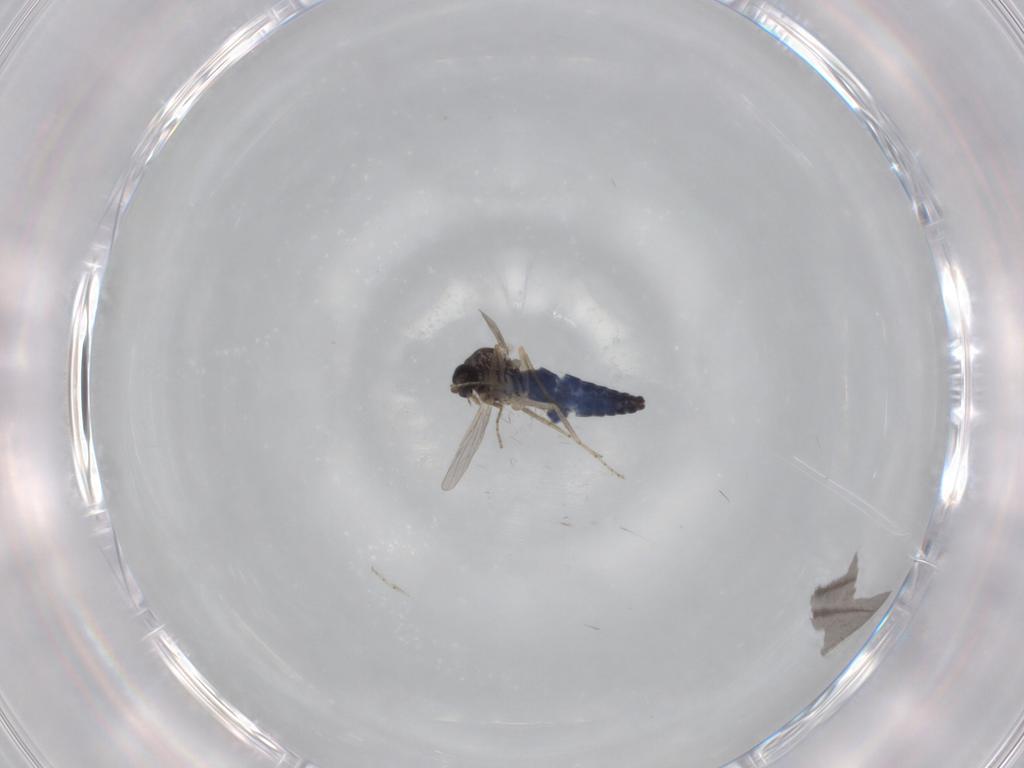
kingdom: Animalia
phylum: Arthropoda
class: Insecta
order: Diptera
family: Ceratopogonidae
